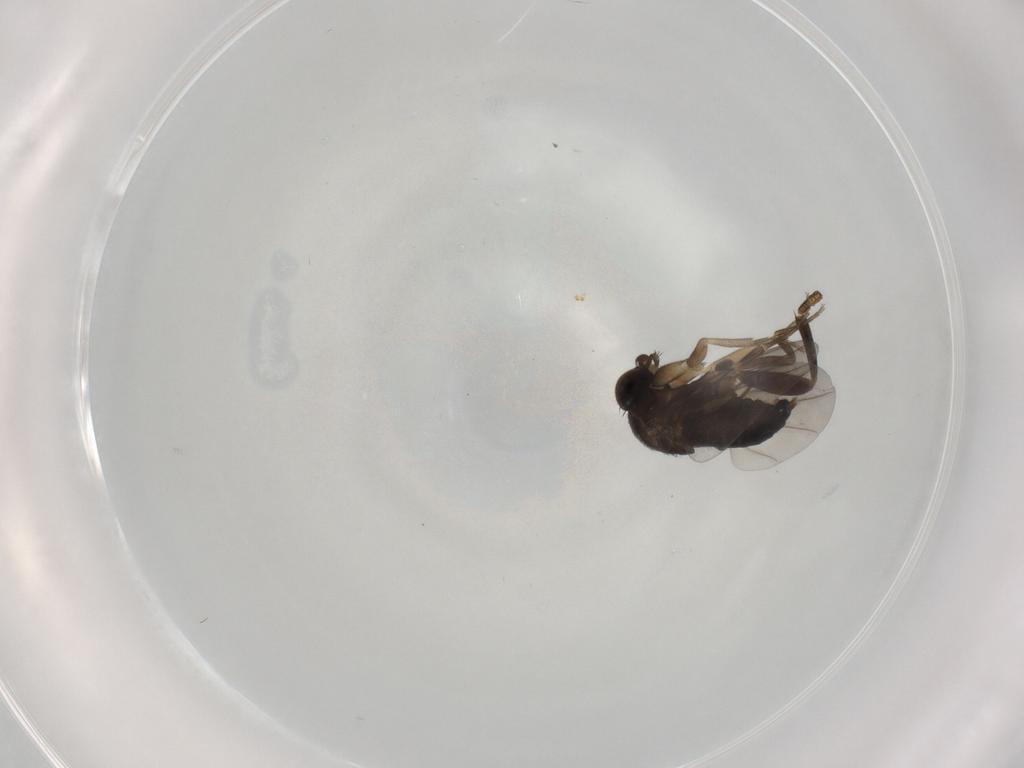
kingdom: Animalia
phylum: Arthropoda
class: Insecta
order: Diptera
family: Phoridae
